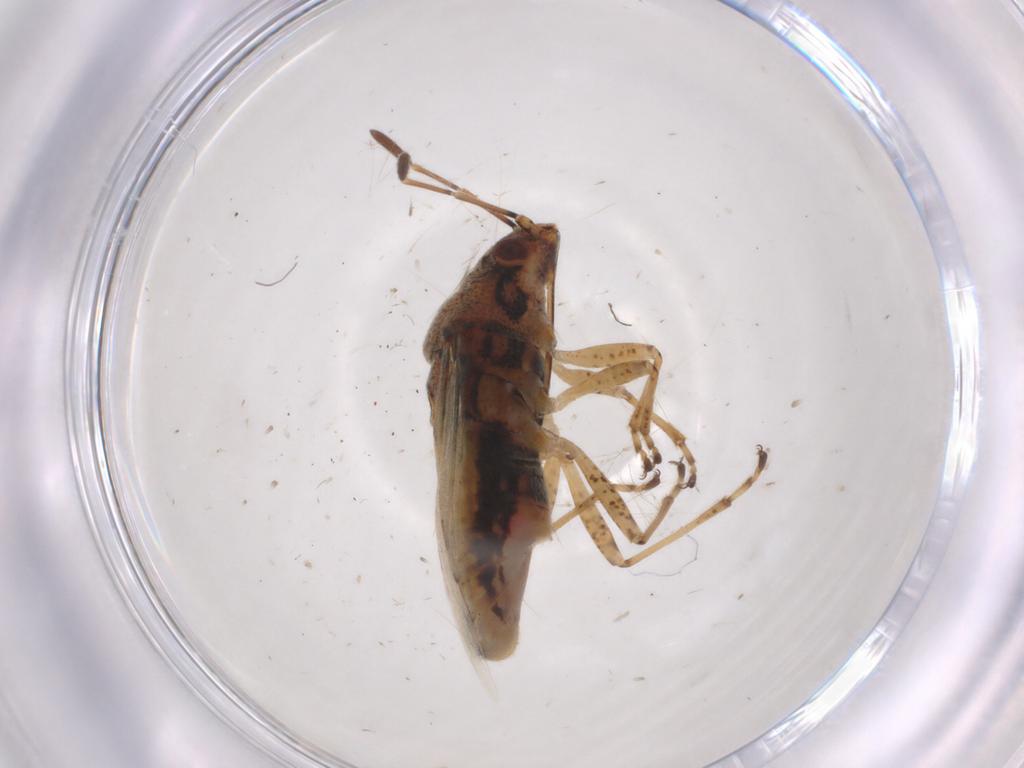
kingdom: Animalia
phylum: Arthropoda
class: Insecta
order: Hemiptera
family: Lygaeidae
